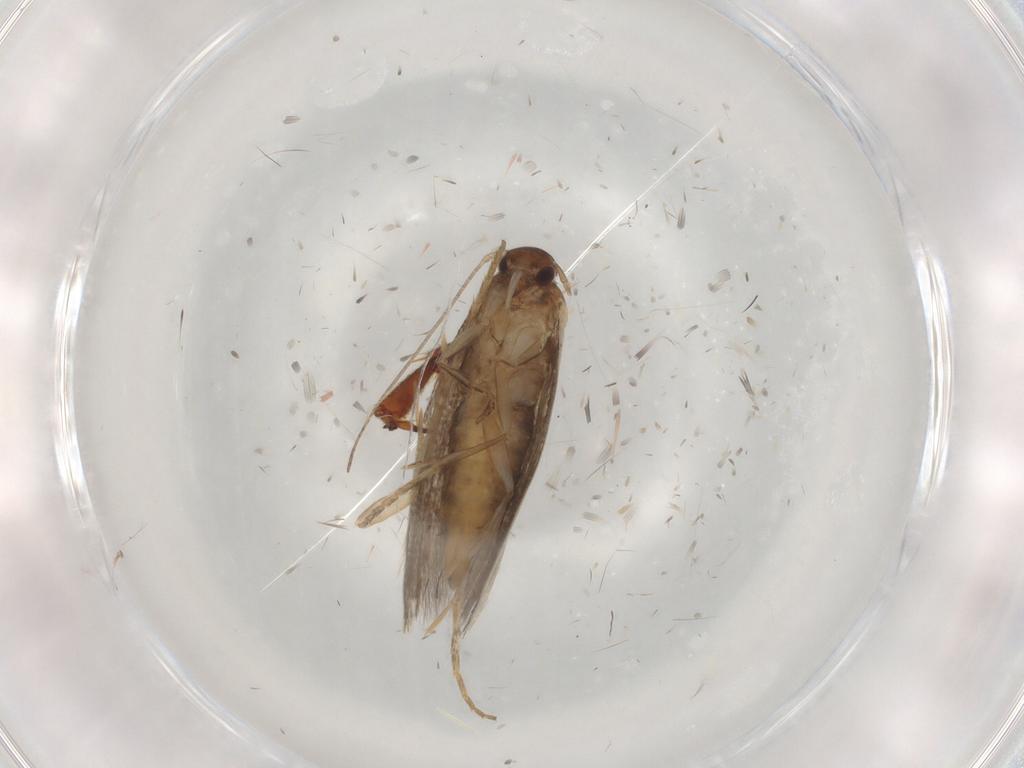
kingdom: Animalia
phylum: Arthropoda
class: Insecta
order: Lepidoptera
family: Elachistidae
